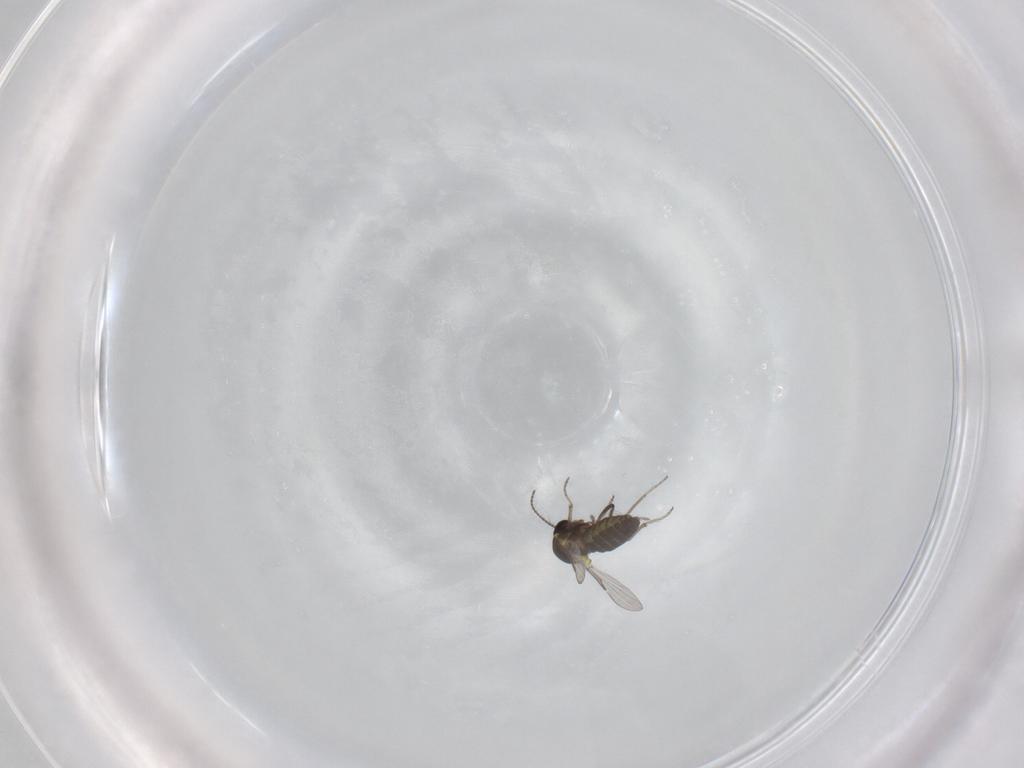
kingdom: Animalia
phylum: Arthropoda
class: Insecta
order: Diptera
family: Ceratopogonidae
